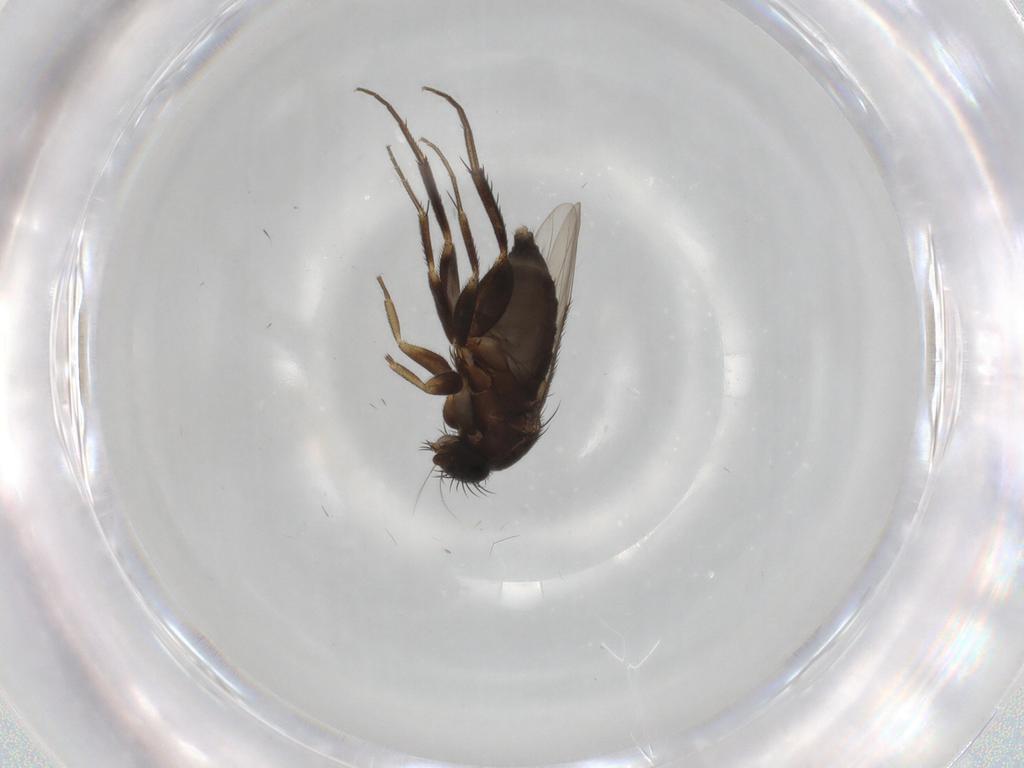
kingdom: Animalia
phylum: Arthropoda
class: Insecta
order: Diptera
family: Phoridae
